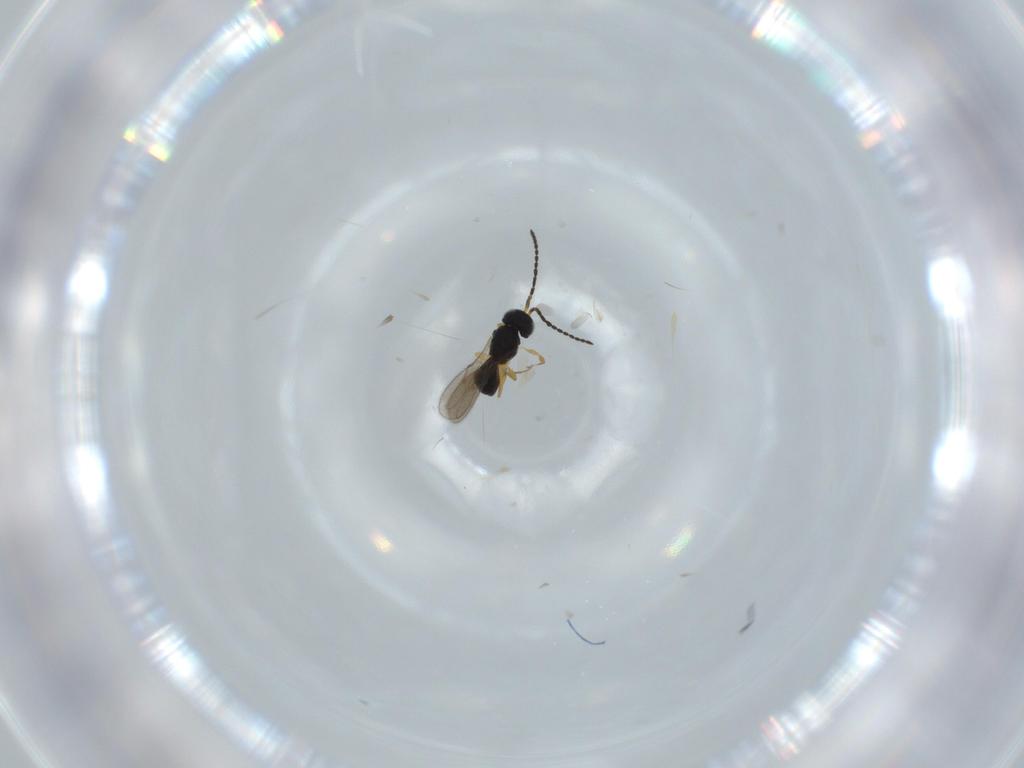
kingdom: Animalia
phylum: Arthropoda
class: Insecta
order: Hymenoptera
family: Scelionidae
